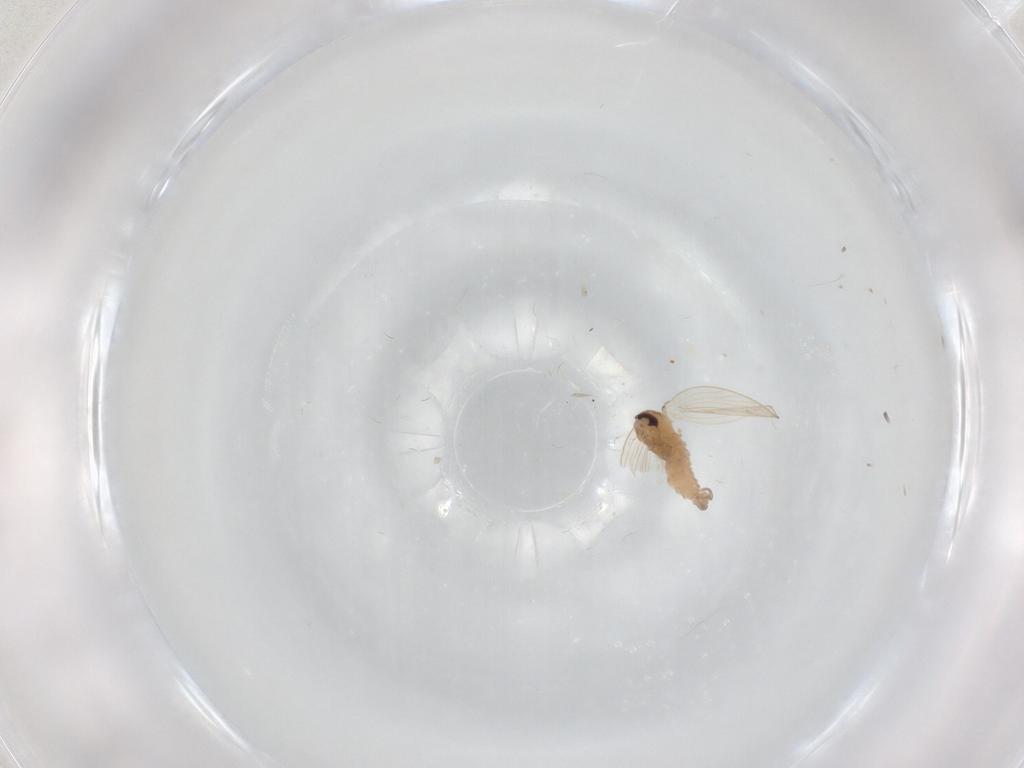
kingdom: Animalia
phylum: Arthropoda
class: Insecta
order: Diptera
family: Psychodidae
